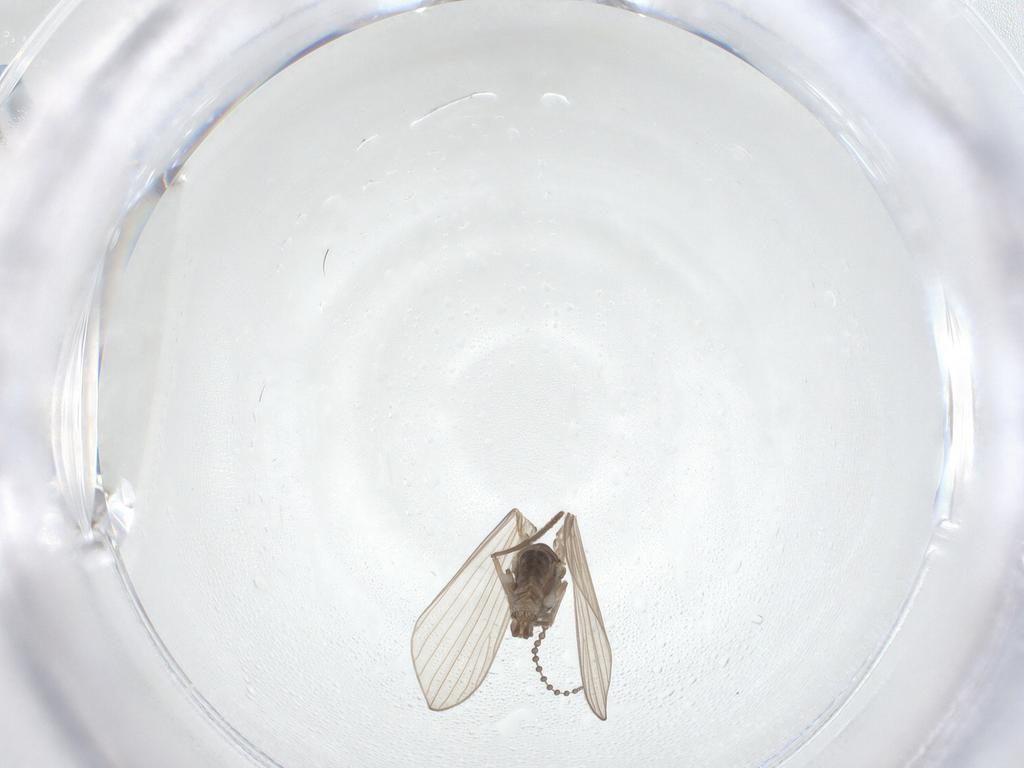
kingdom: Animalia
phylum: Arthropoda
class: Insecta
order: Diptera
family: Psychodidae
